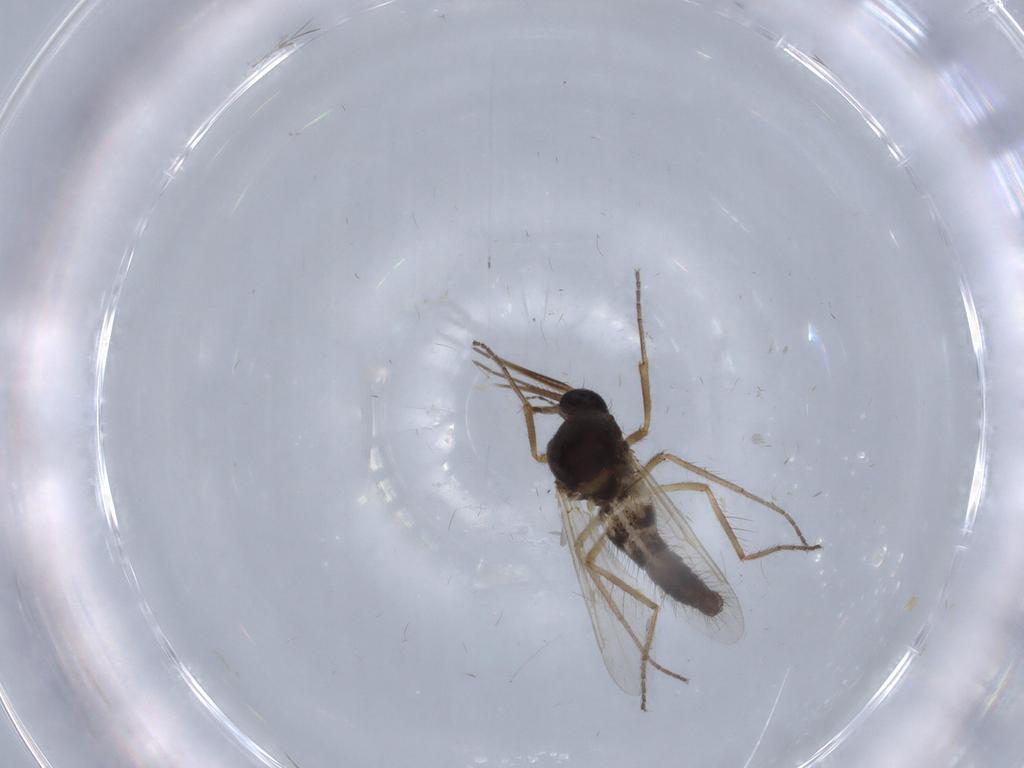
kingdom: Animalia
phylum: Arthropoda
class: Insecta
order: Diptera
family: Ceratopogonidae
